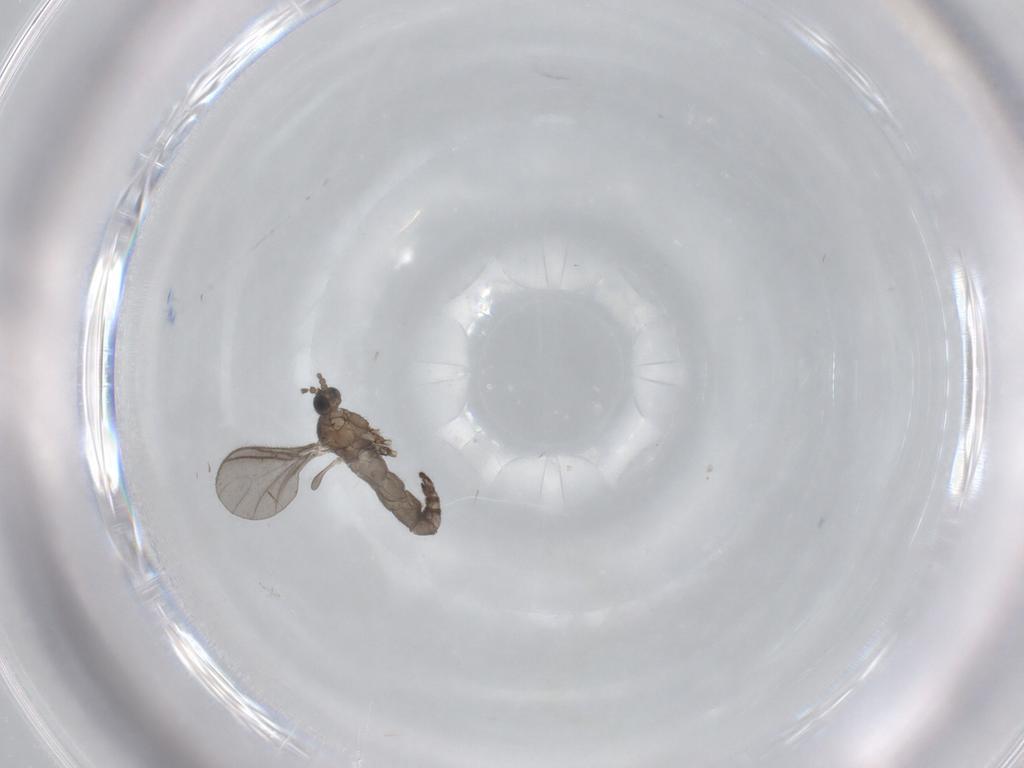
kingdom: Animalia
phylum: Arthropoda
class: Insecta
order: Diptera
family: Sciaridae
